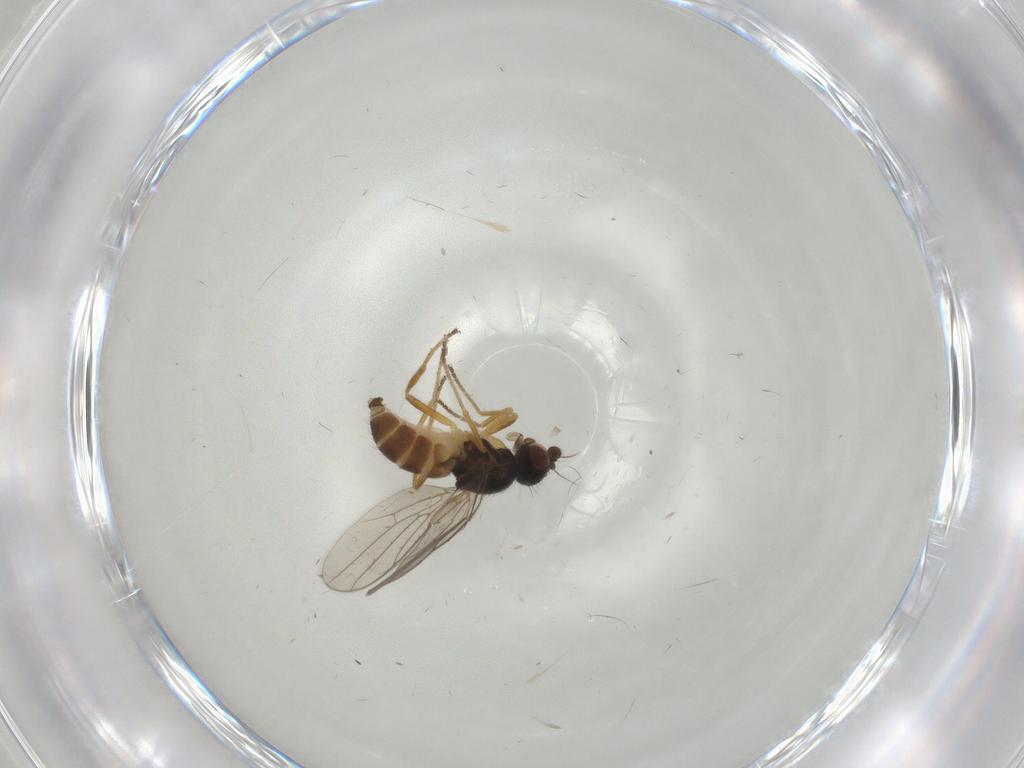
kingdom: Animalia
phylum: Arthropoda
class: Insecta
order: Diptera
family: Chloropidae
